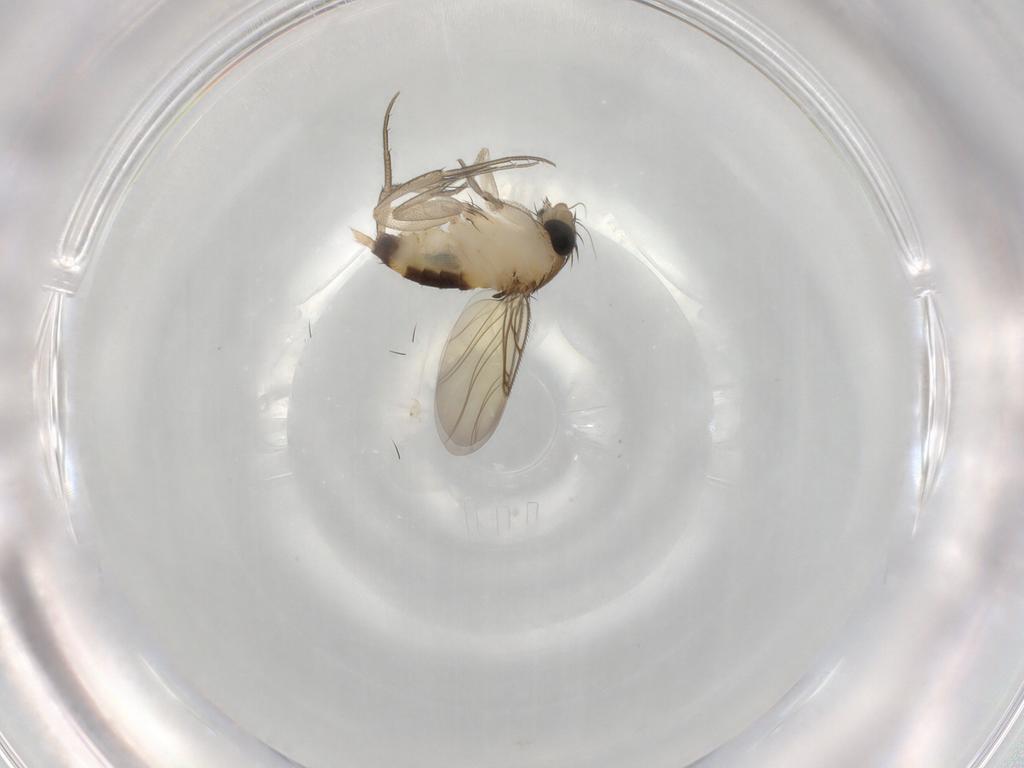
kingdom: Animalia
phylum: Arthropoda
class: Insecta
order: Diptera
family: Phoridae
